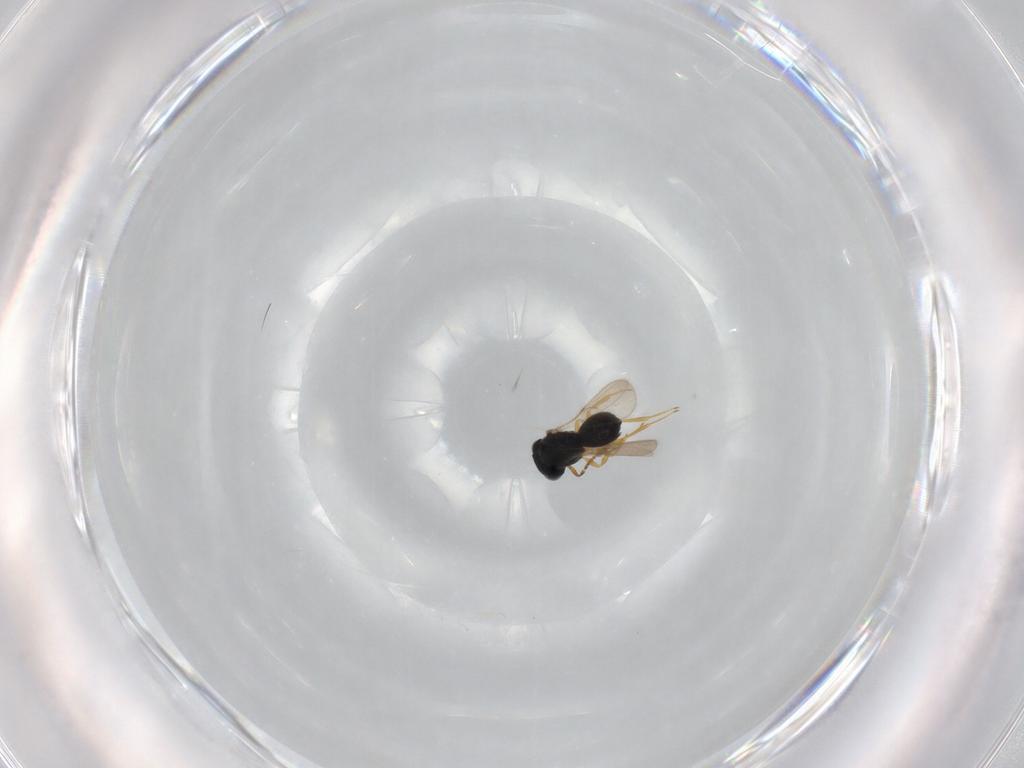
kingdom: Animalia
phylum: Arthropoda
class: Insecta
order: Hymenoptera
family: Scelionidae
